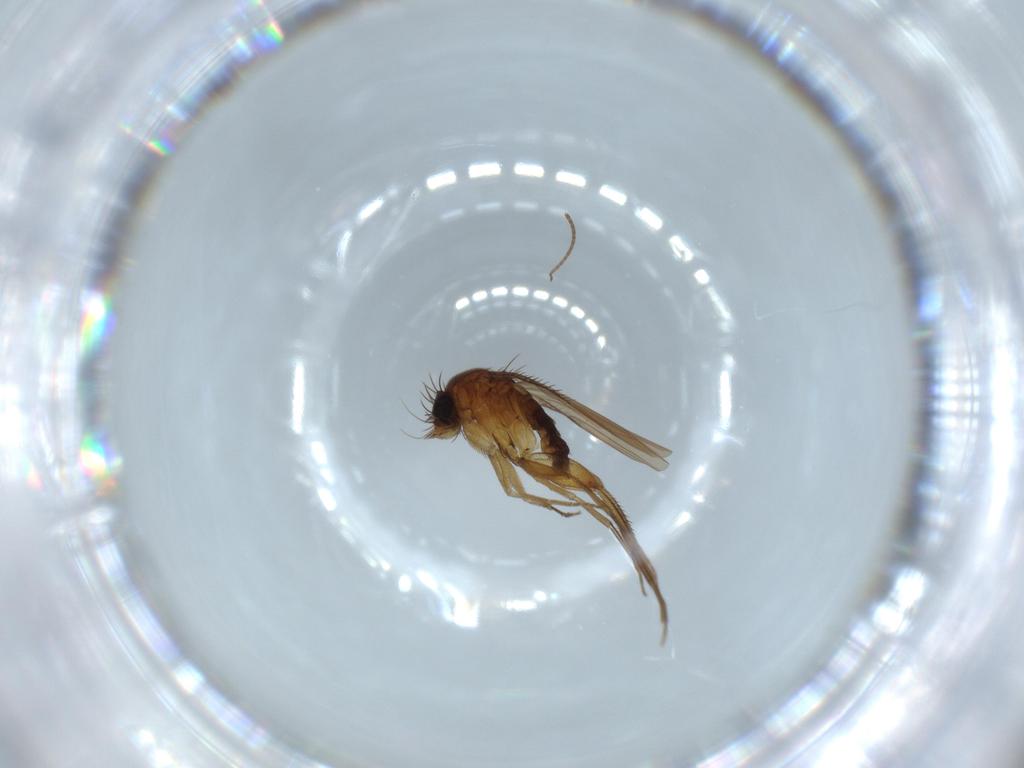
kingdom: Animalia
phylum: Arthropoda
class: Insecta
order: Diptera
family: Phoridae
